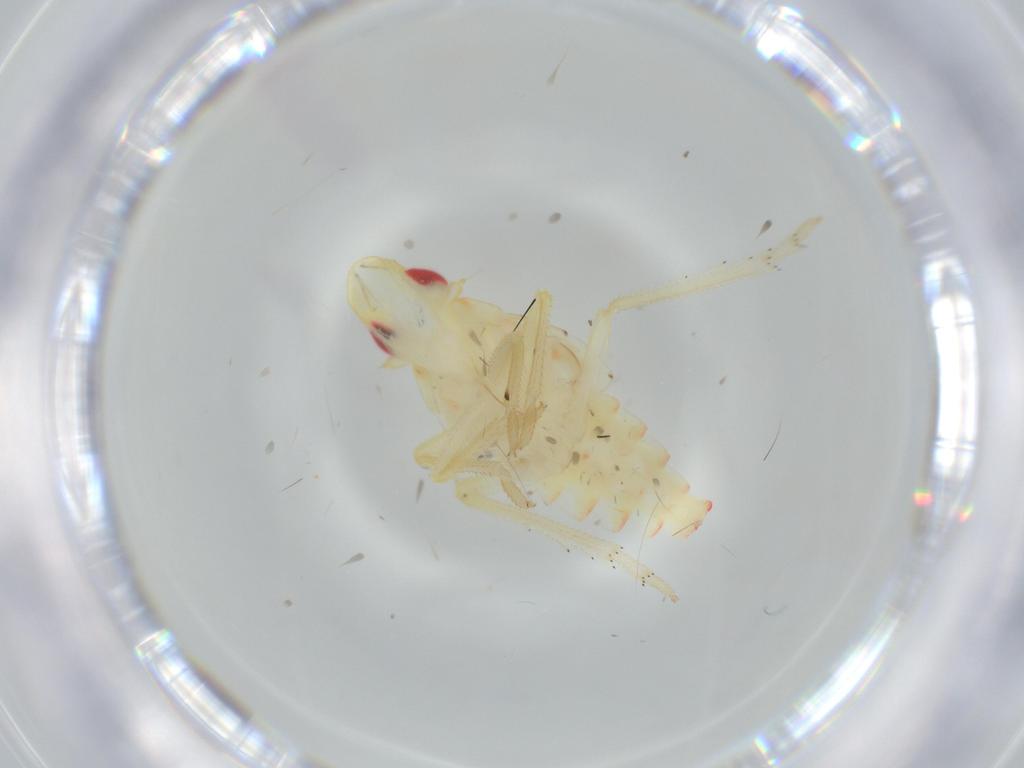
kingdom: Animalia
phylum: Arthropoda
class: Insecta
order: Hemiptera
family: Tropiduchidae
